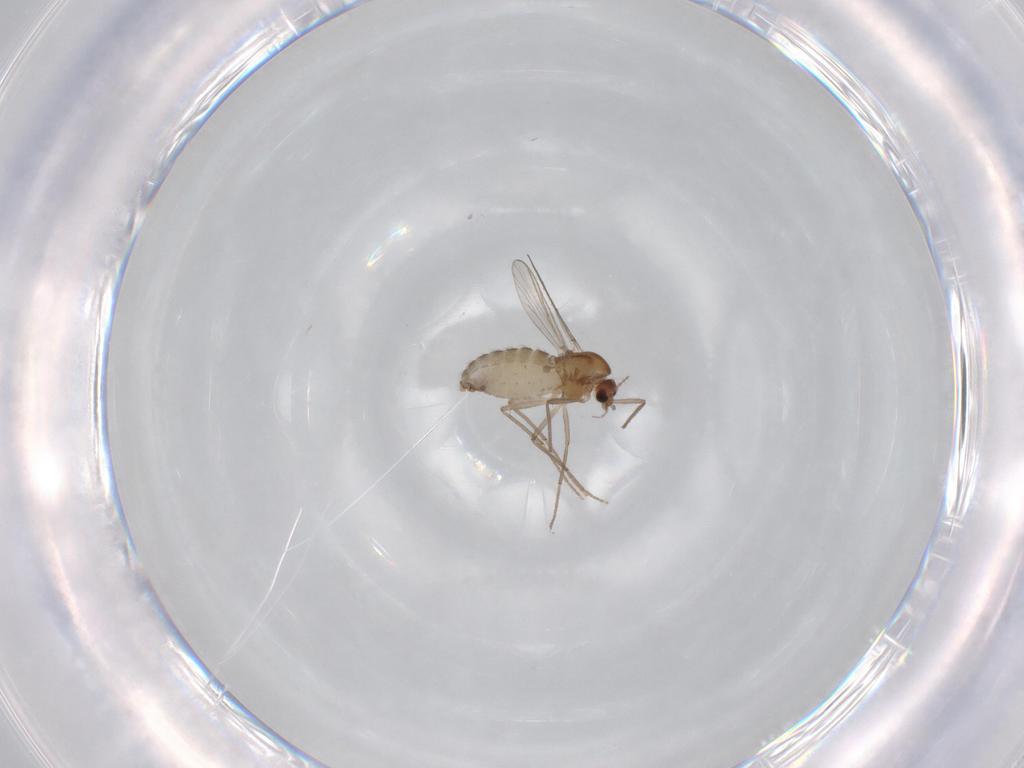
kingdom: Animalia
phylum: Arthropoda
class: Insecta
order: Diptera
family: Chironomidae
